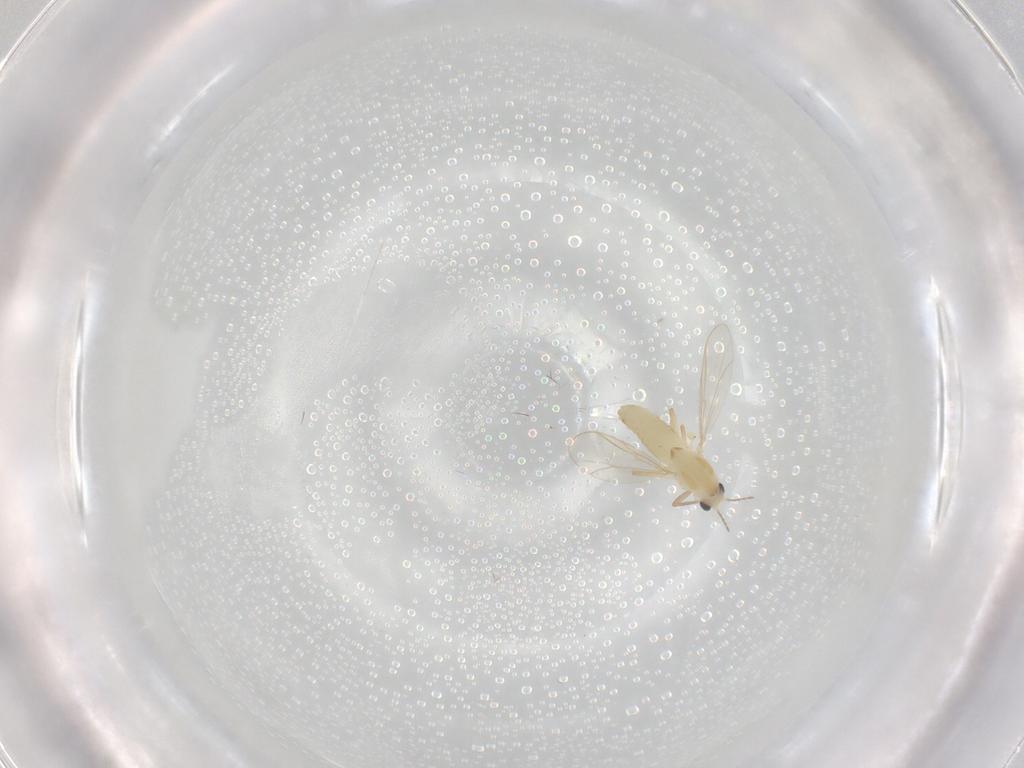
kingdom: Animalia
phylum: Arthropoda
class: Insecta
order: Diptera
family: Chironomidae
